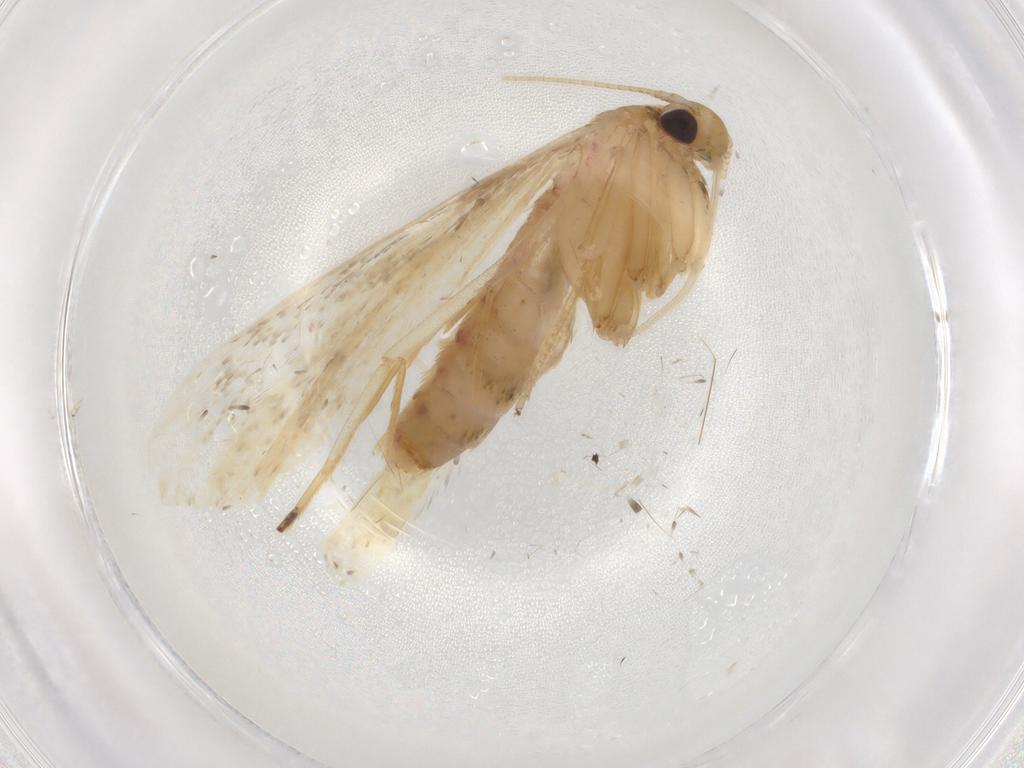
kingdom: Animalia
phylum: Arthropoda
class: Insecta
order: Lepidoptera
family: Lecithoceridae
